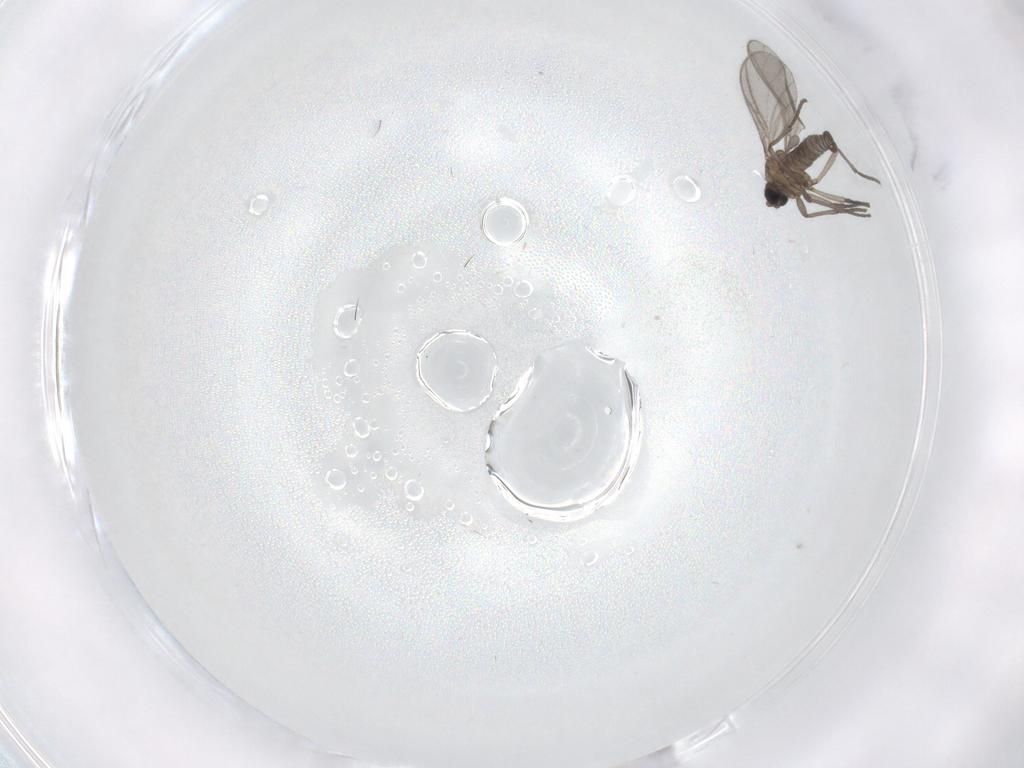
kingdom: Animalia
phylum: Arthropoda
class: Insecta
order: Diptera
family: Sciaridae
